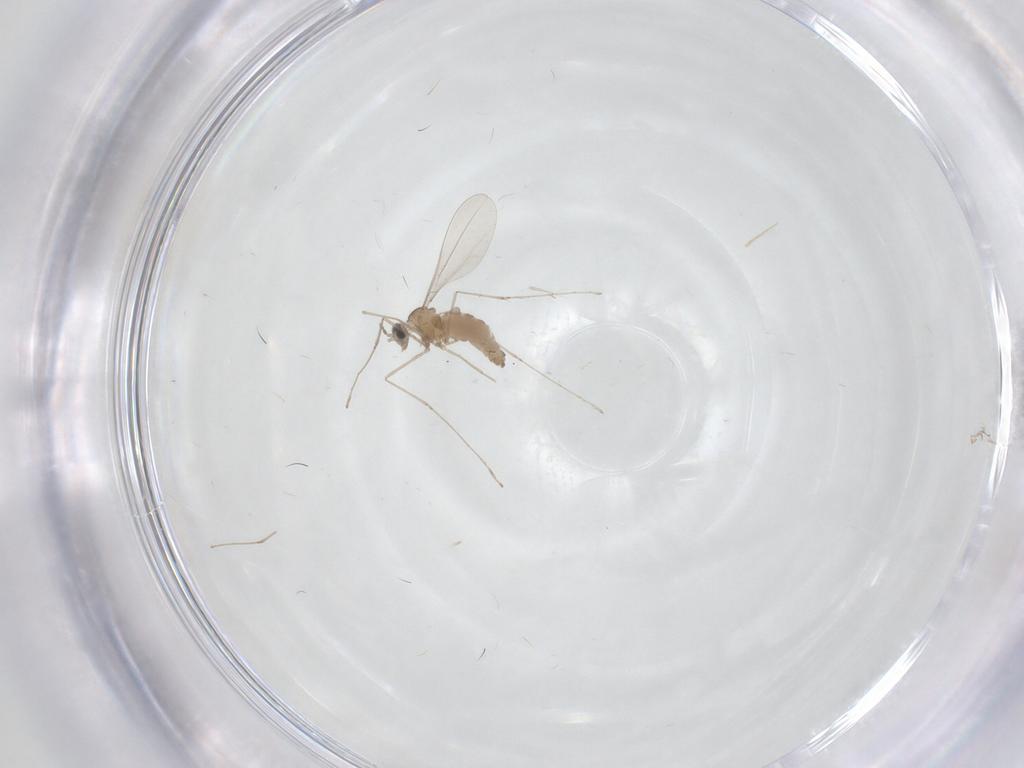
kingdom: Animalia
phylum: Arthropoda
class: Insecta
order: Diptera
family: Cecidomyiidae
